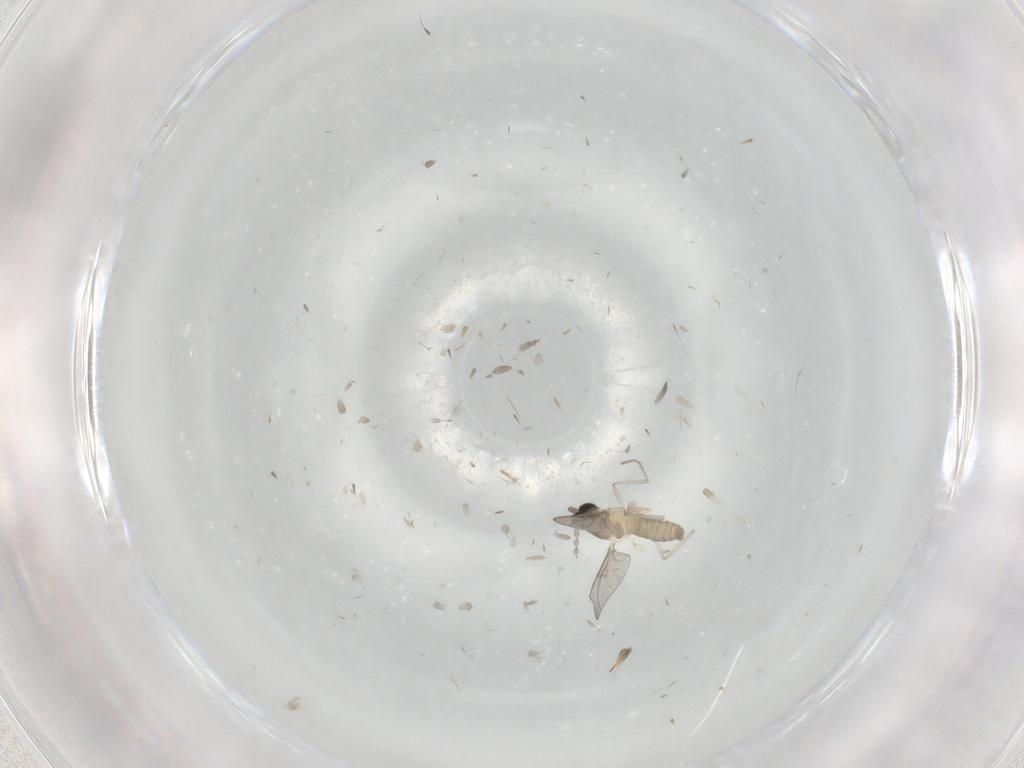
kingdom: Animalia
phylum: Arthropoda
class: Insecta
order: Diptera
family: Cecidomyiidae
